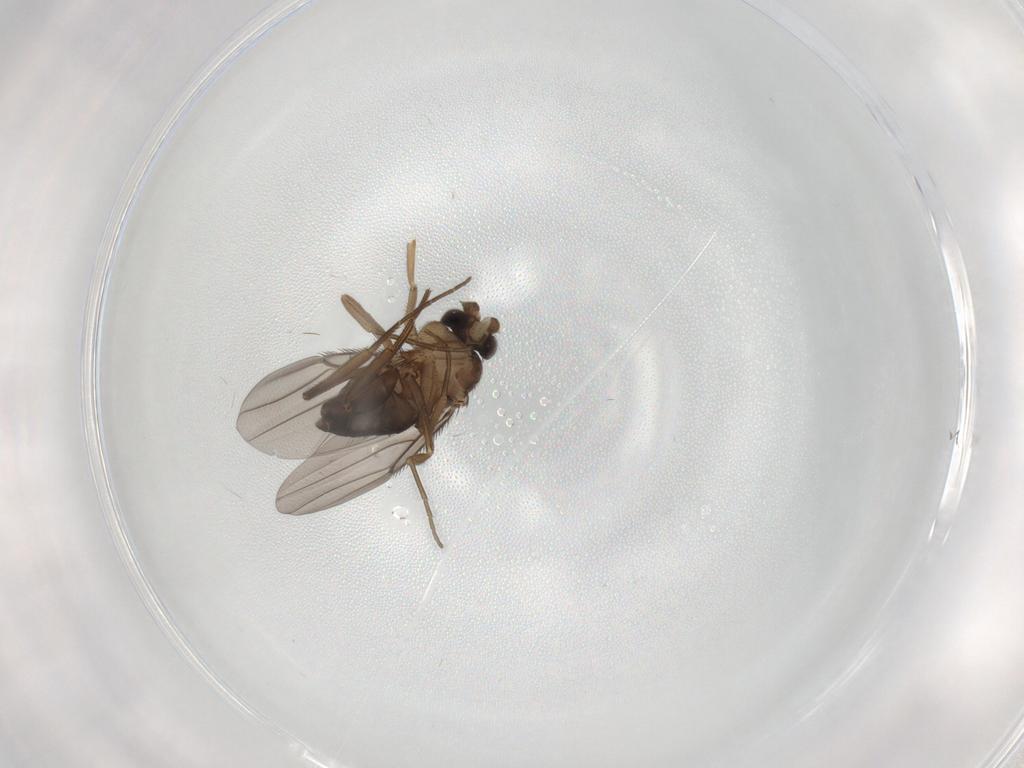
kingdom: Animalia
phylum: Arthropoda
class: Insecta
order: Diptera
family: Phoridae
